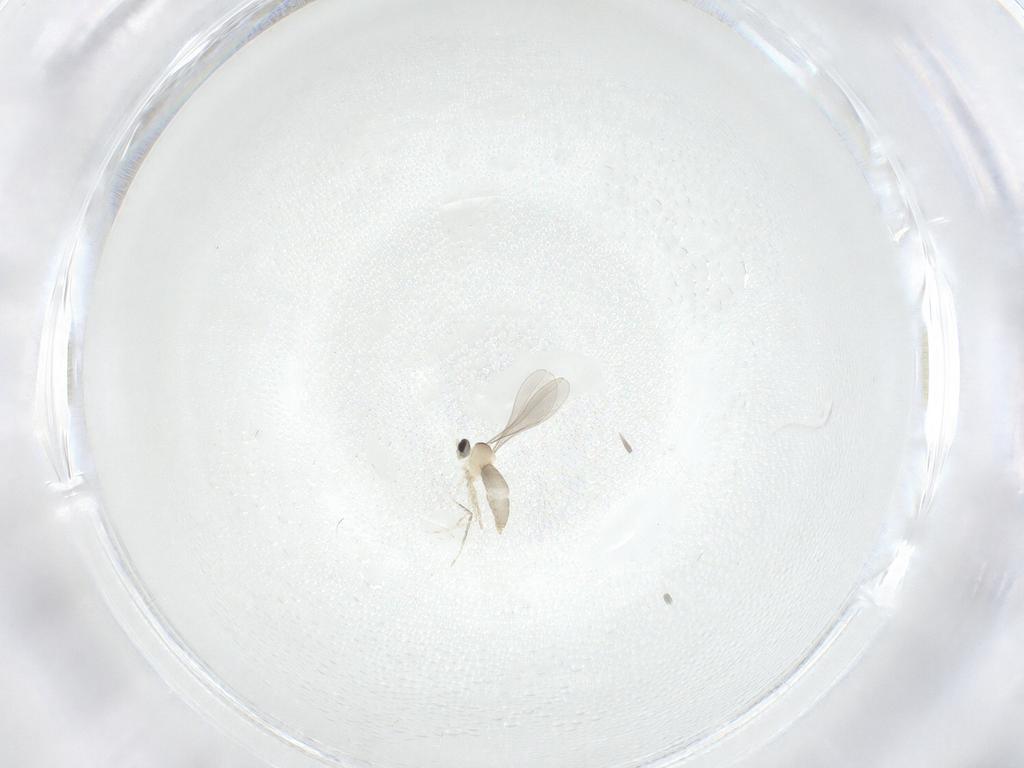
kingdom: Animalia
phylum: Arthropoda
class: Insecta
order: Diptera
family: Cecidomyiidae
